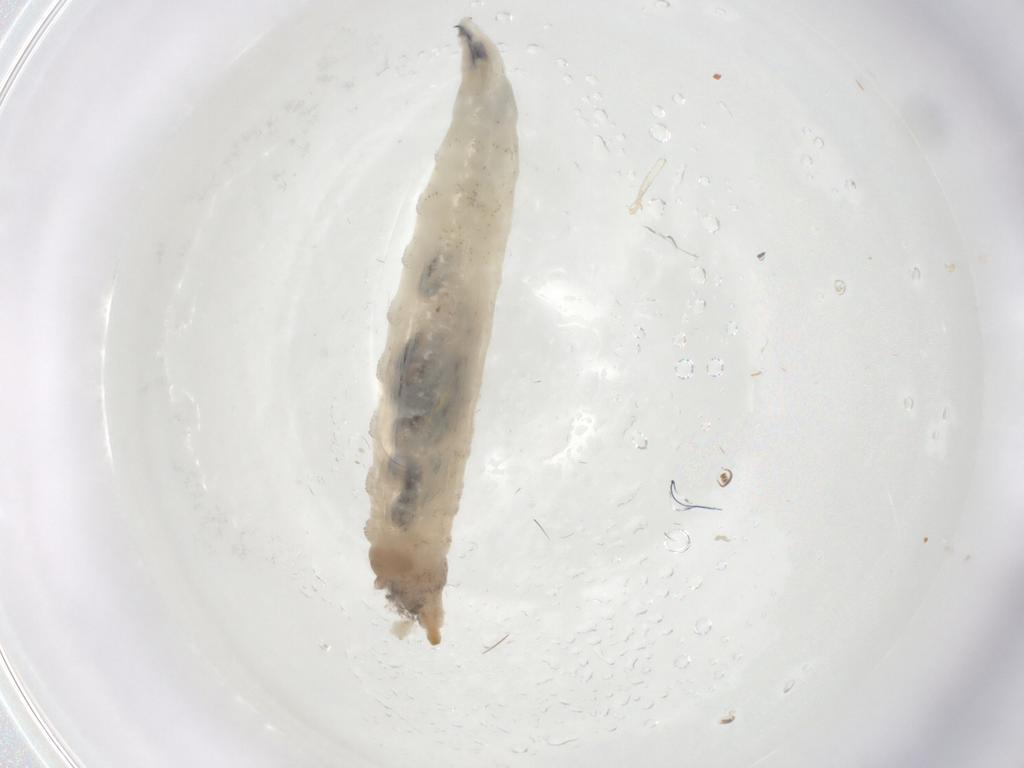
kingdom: Animalia
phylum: Arthropoda
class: Insecta
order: Diptera
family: Drosophilidae
